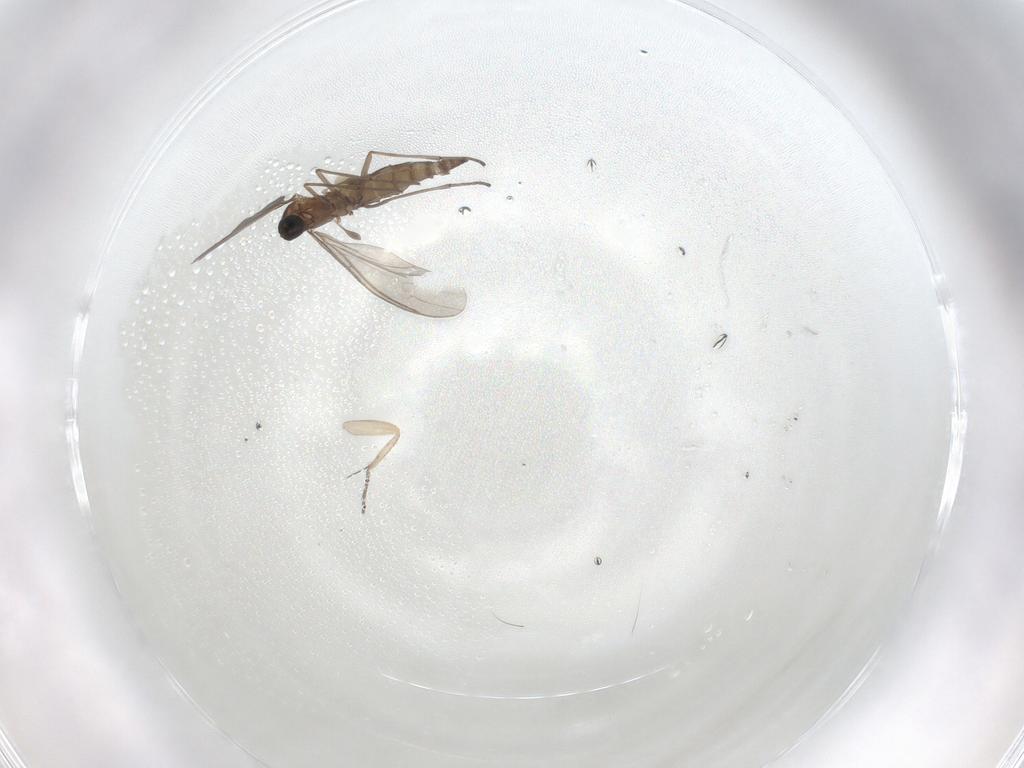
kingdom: Animalia
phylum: Arthropoda
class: Insecta
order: Diptera
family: Sciaridae
